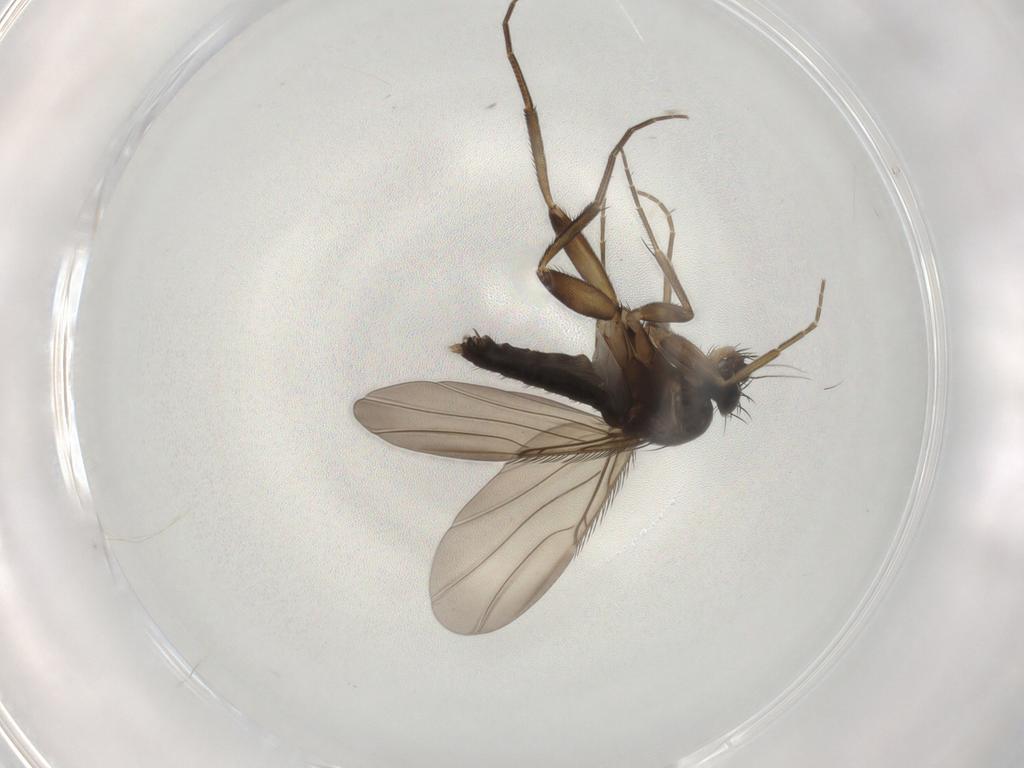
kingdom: Animalia
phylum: Arthropoda
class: Insecta
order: Diptera
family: Phoridae
